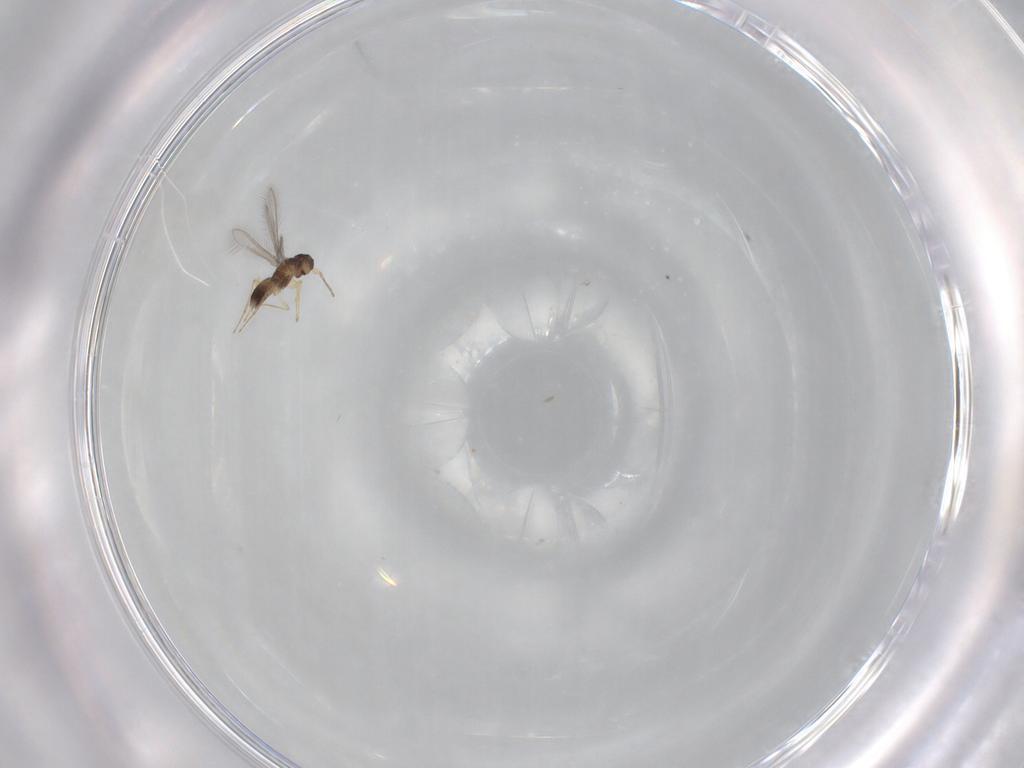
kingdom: Animalia
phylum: Arthropoda
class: Insecta
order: Hymenoptera
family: Mymaridae
